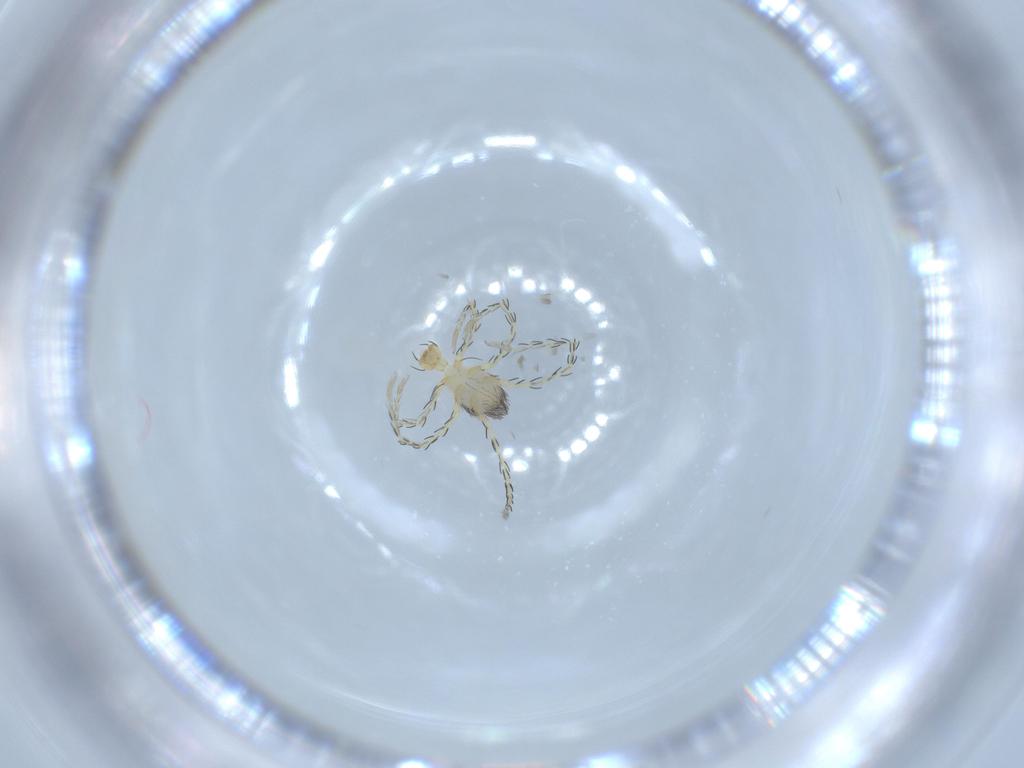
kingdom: Animalia
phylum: Arthropoda
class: Arachnida
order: Trombidiformes
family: Erythraeidae
